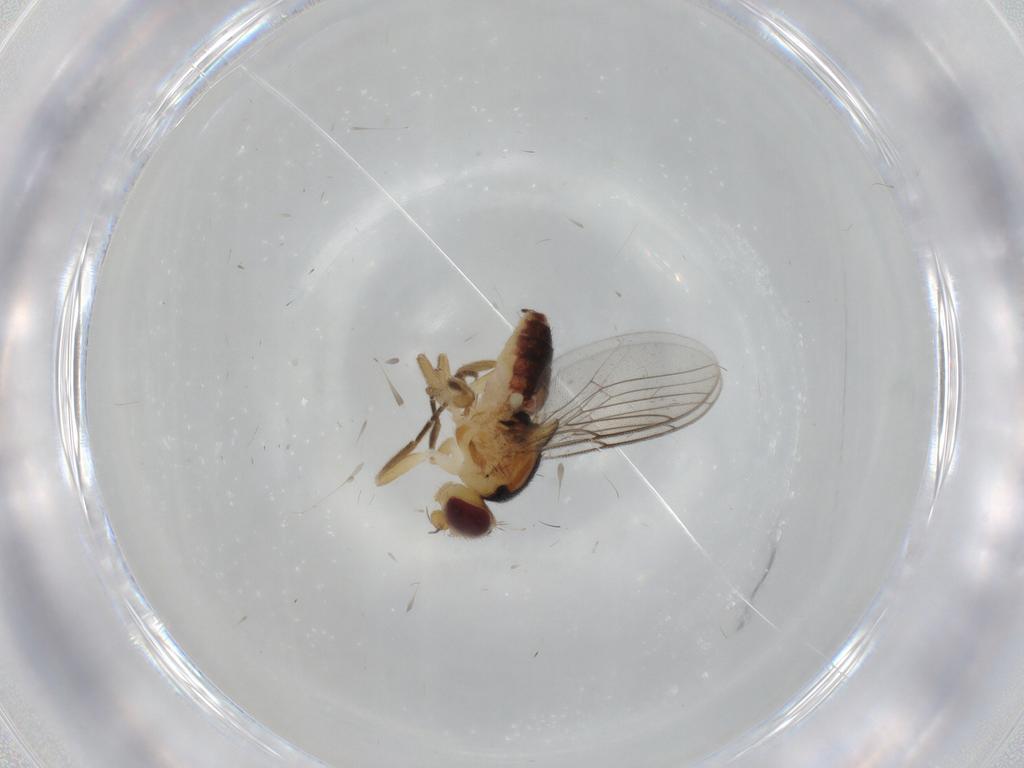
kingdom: Animalia
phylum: Arthropoda
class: Insecta
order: Diptera
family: Chloropidae
